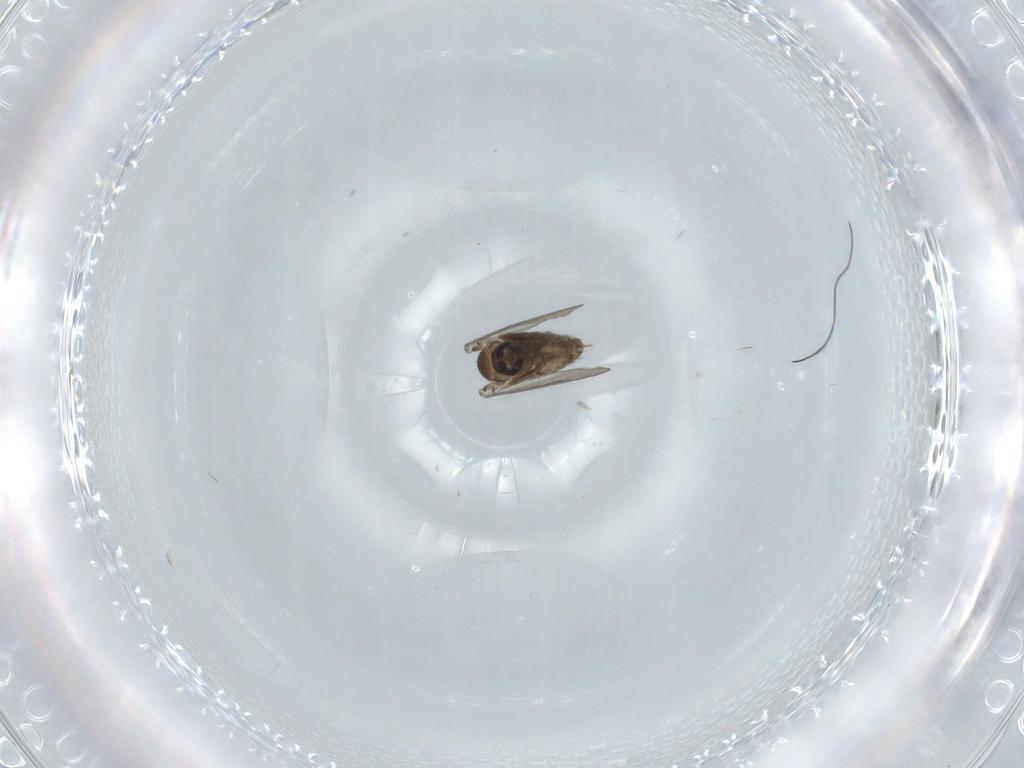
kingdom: Animalia
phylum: Arthropoda
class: Insecta
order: Diptera
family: Psychodidae
